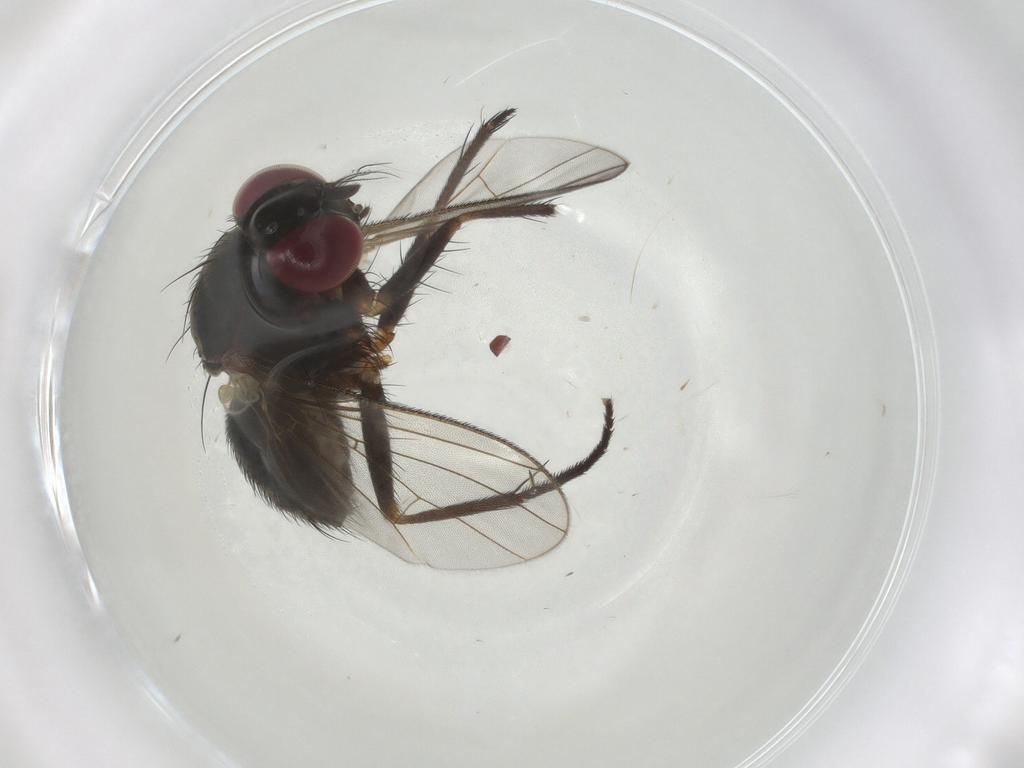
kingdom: Animalia
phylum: Arthropoda
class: Insecta
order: Diptera
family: Muscidae
